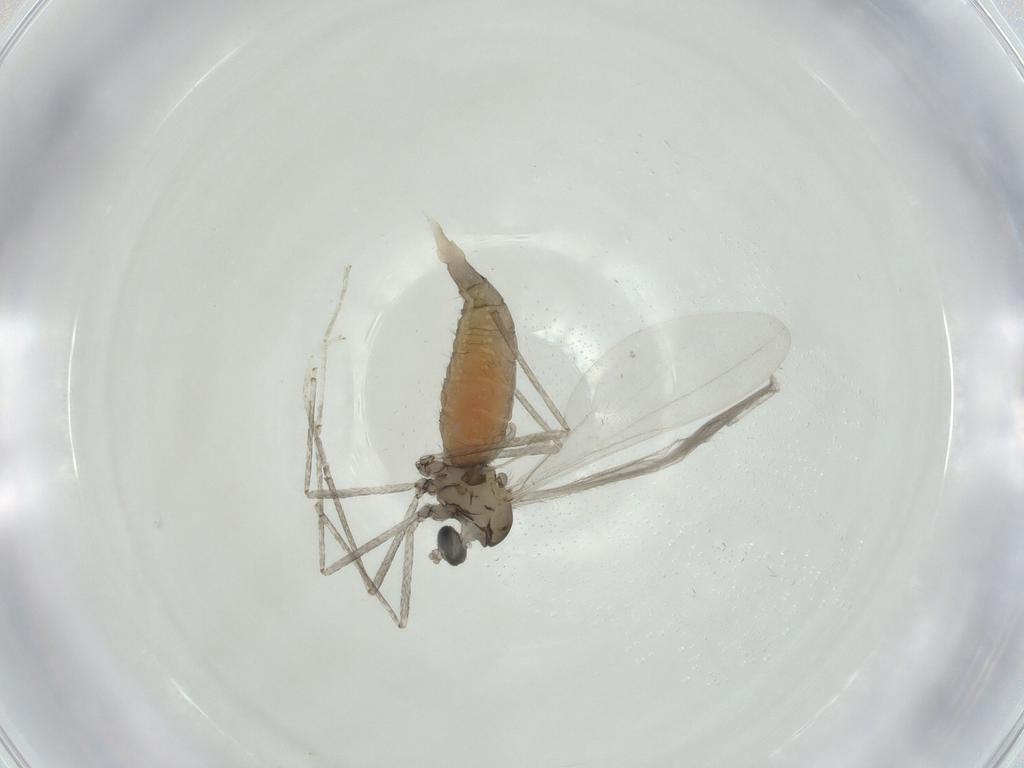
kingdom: Animalia
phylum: Arthropoda
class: Insecta
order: Diptera
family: Cecidomyiidae
